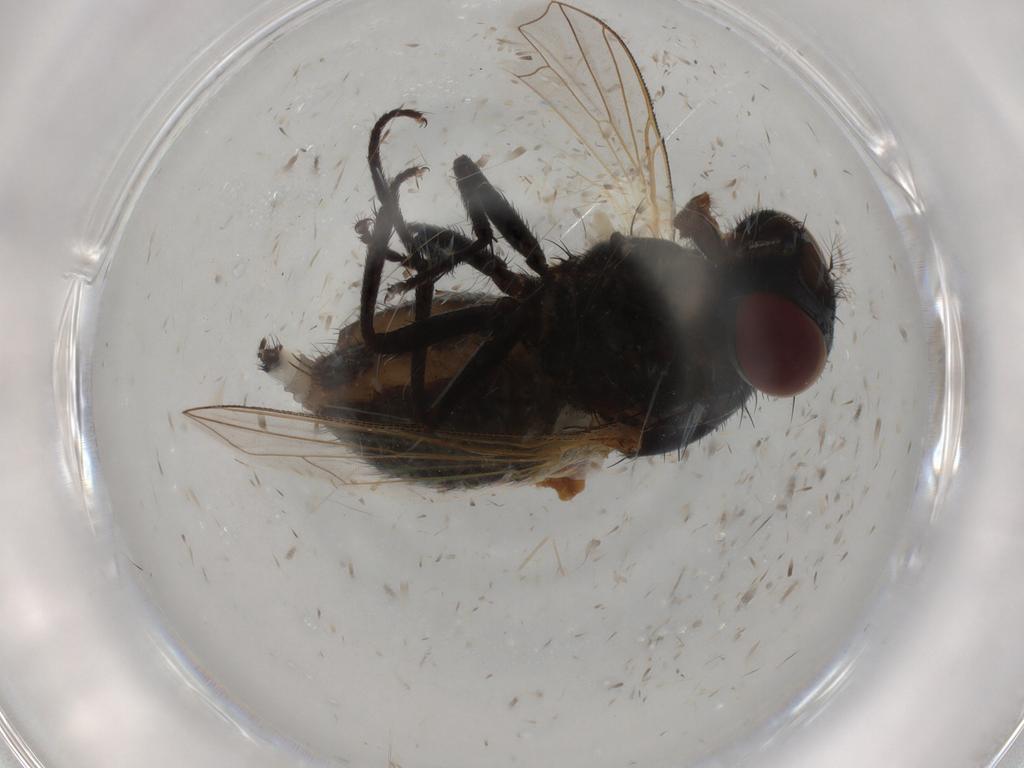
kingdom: Animalia
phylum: Arthropoda
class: Insecta
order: Diptera
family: Muscidae
